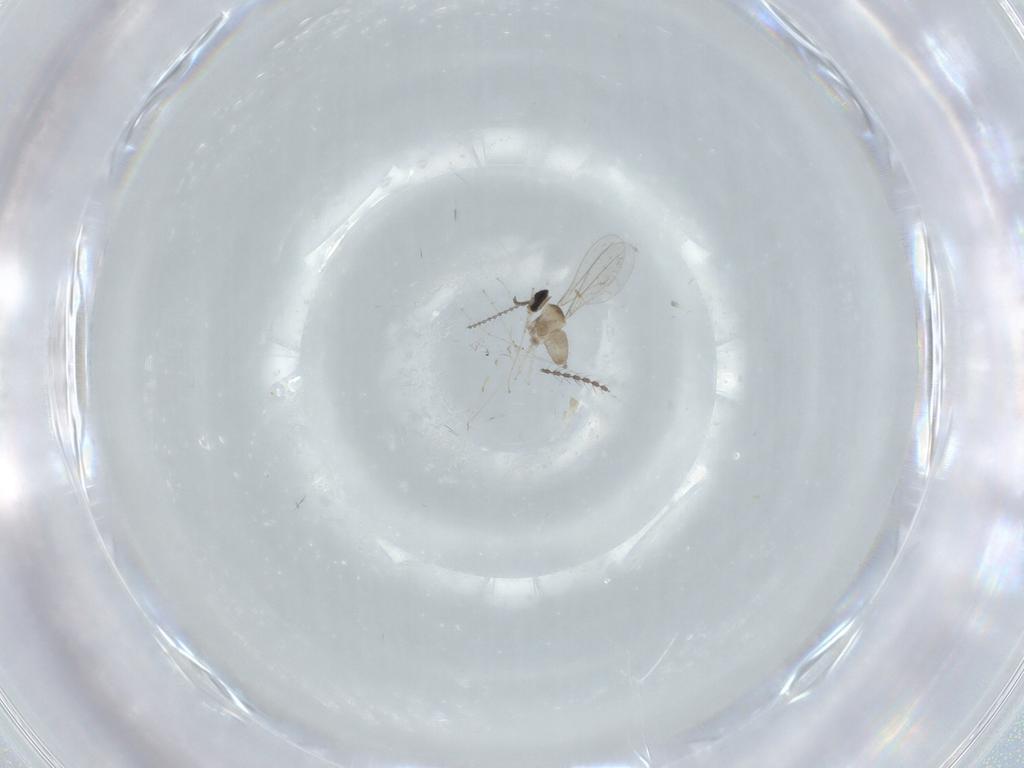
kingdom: Animalia
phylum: Arthropoda
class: Insecta
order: Diptera
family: Cecidomyiidae
